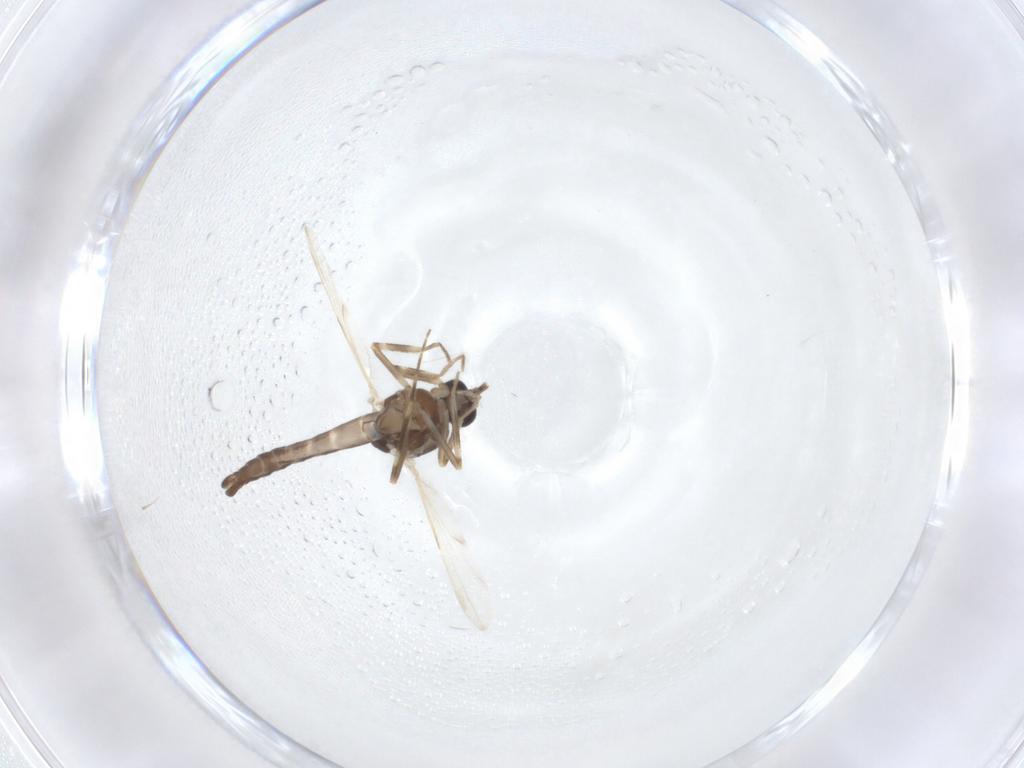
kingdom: Animalia
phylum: Arthropoda
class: Insecta
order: Diptera
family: Ceratopogonidae
